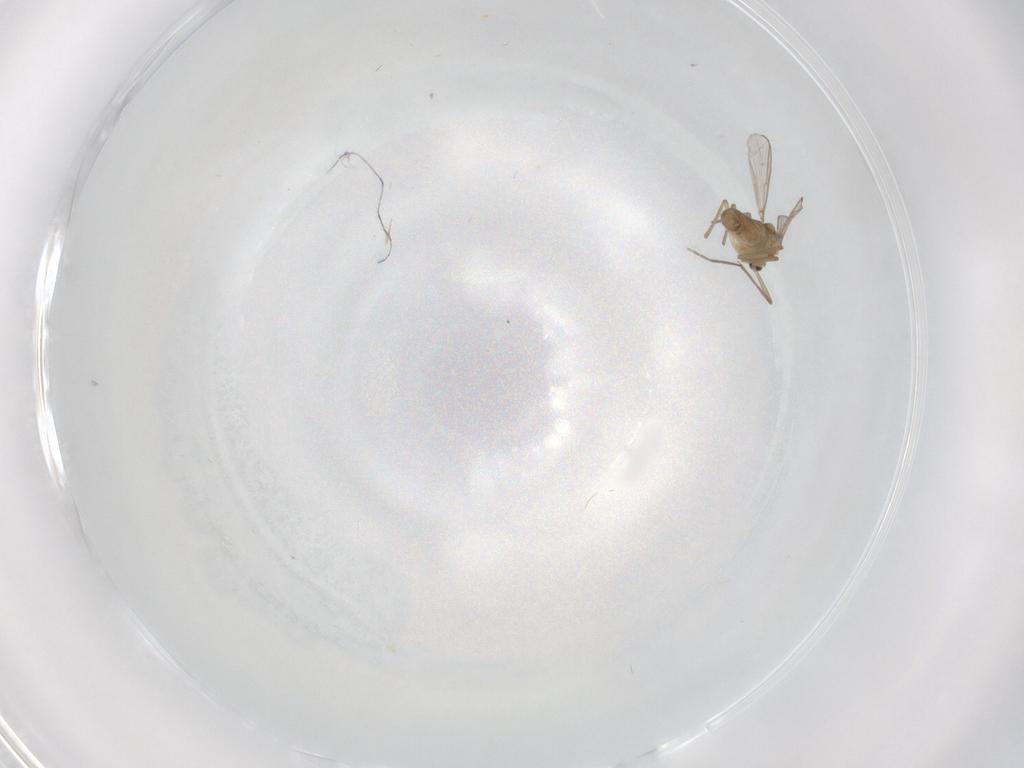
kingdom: Animalia
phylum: Arthropoda
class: Insecta
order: Diptera
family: Chironomidae
